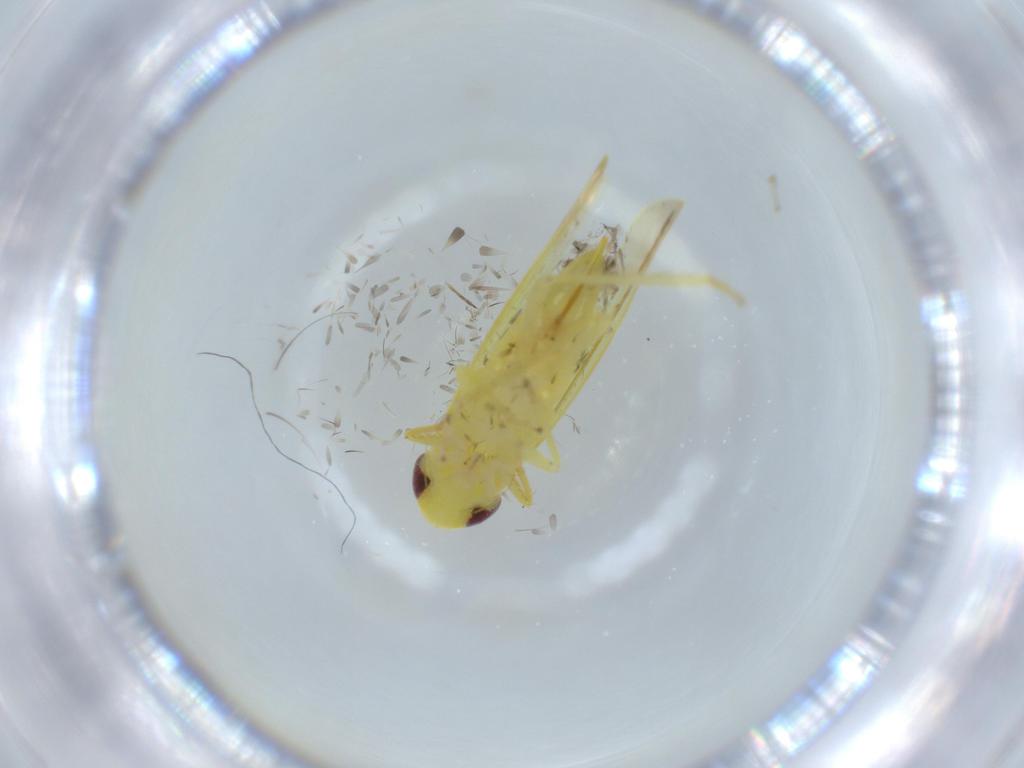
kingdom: Animalia
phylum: Arthropoda
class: Insecta
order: Hemiptera
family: Cicadellidae
